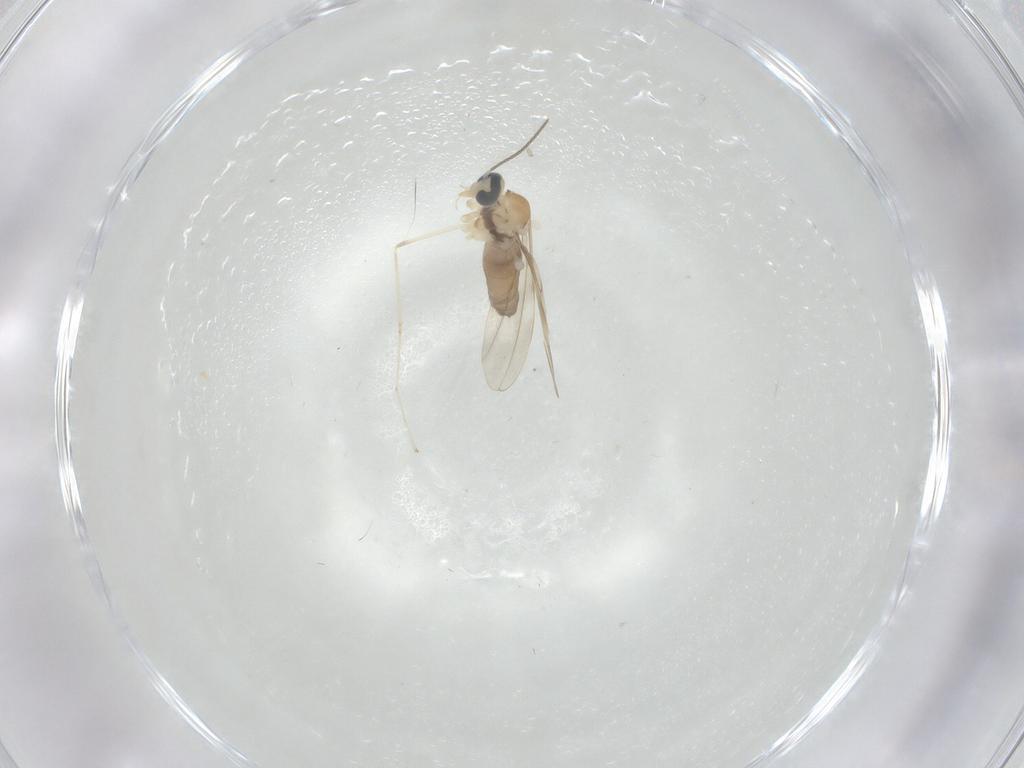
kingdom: Animalia
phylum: Arthropoda
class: Insecta
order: Diptera
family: Cecidomyiidae
